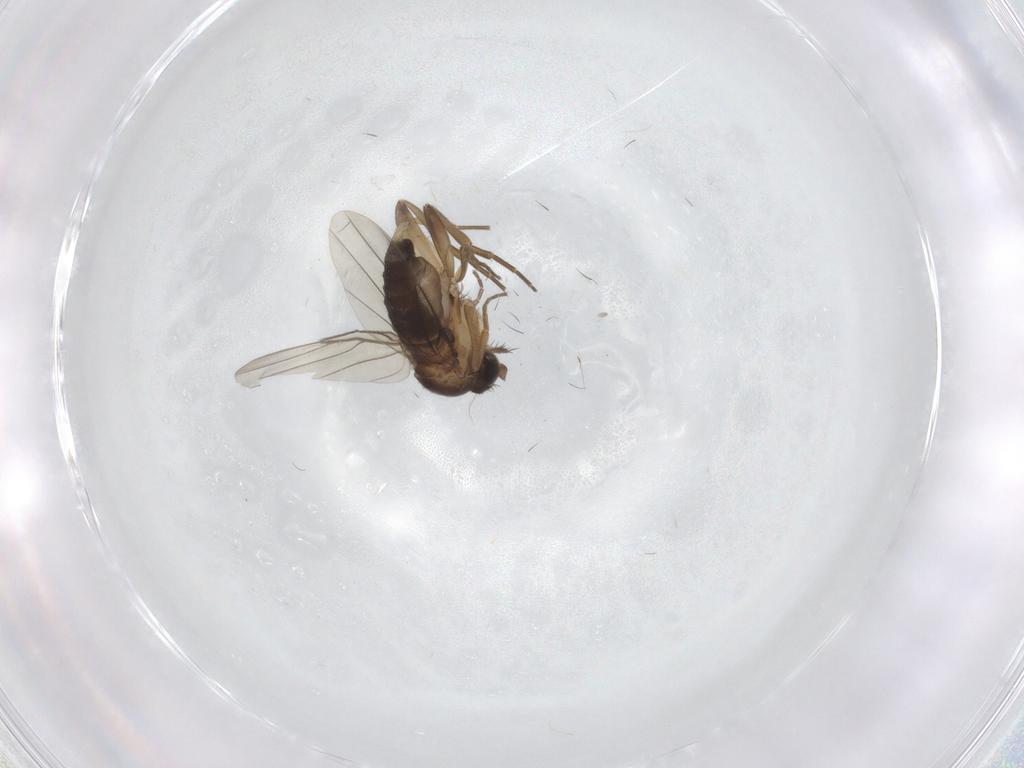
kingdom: Animalia
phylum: Arthropoda
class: Insecta
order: Diptera
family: Phoridae
